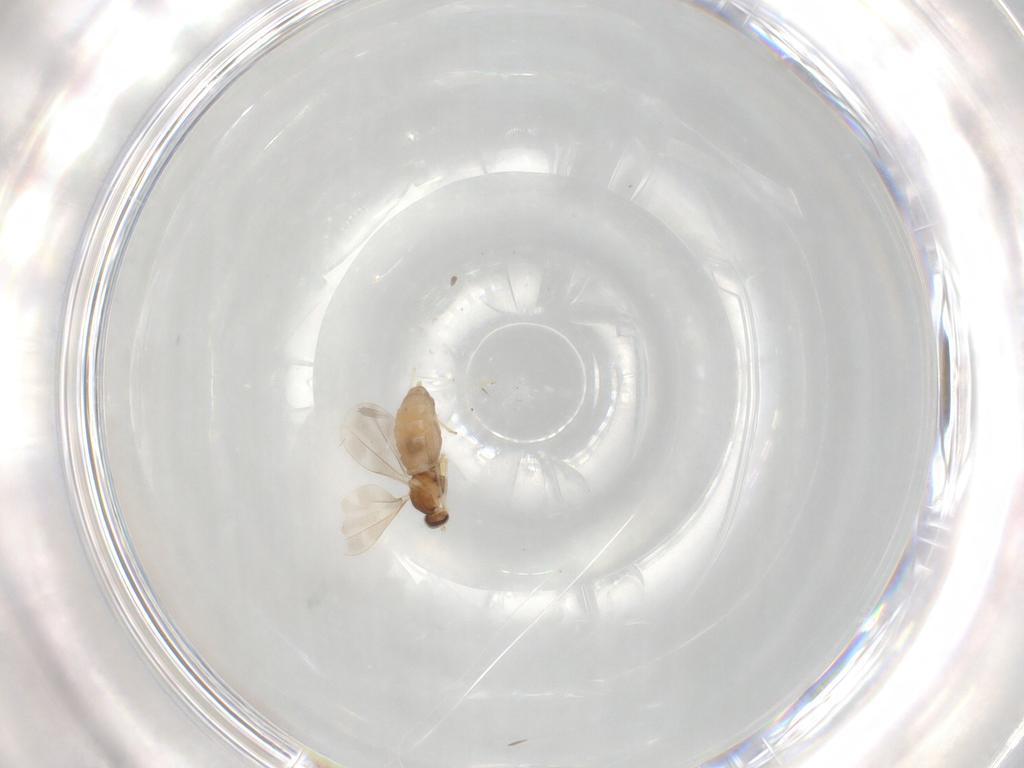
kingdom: Animalia
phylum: Arthropoda
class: Insecta
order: Diptera
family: Cecidomyiidae
